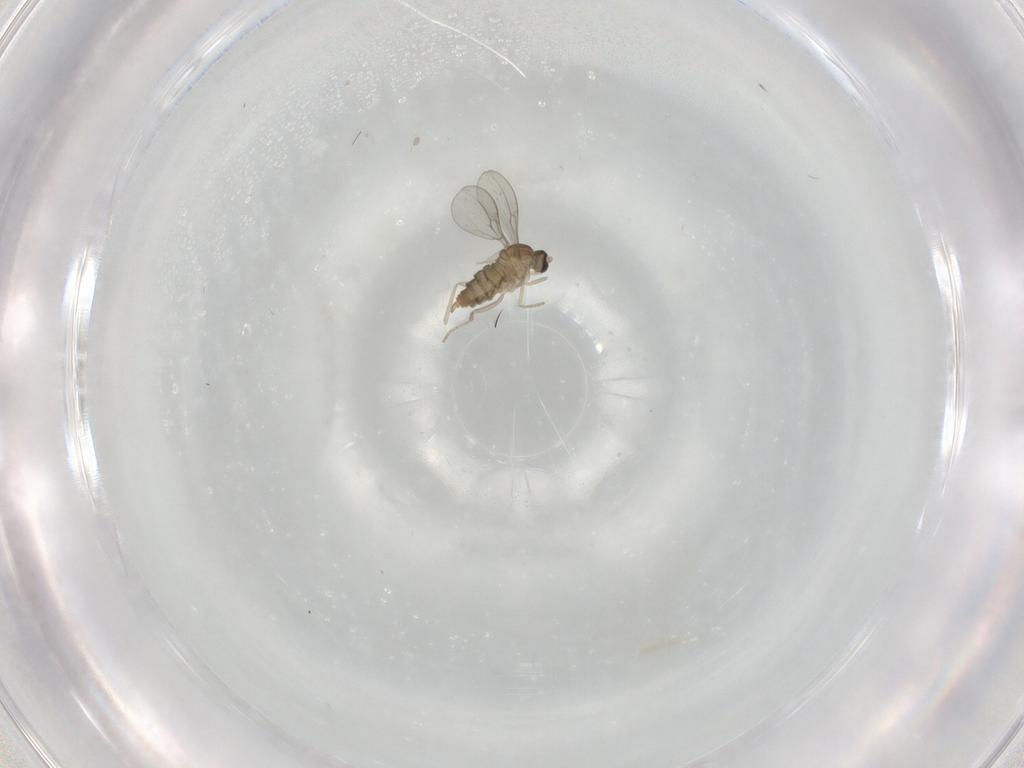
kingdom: Animalia
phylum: Arthropoda
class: Insecta
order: Diptera
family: Cecidomyiidae
